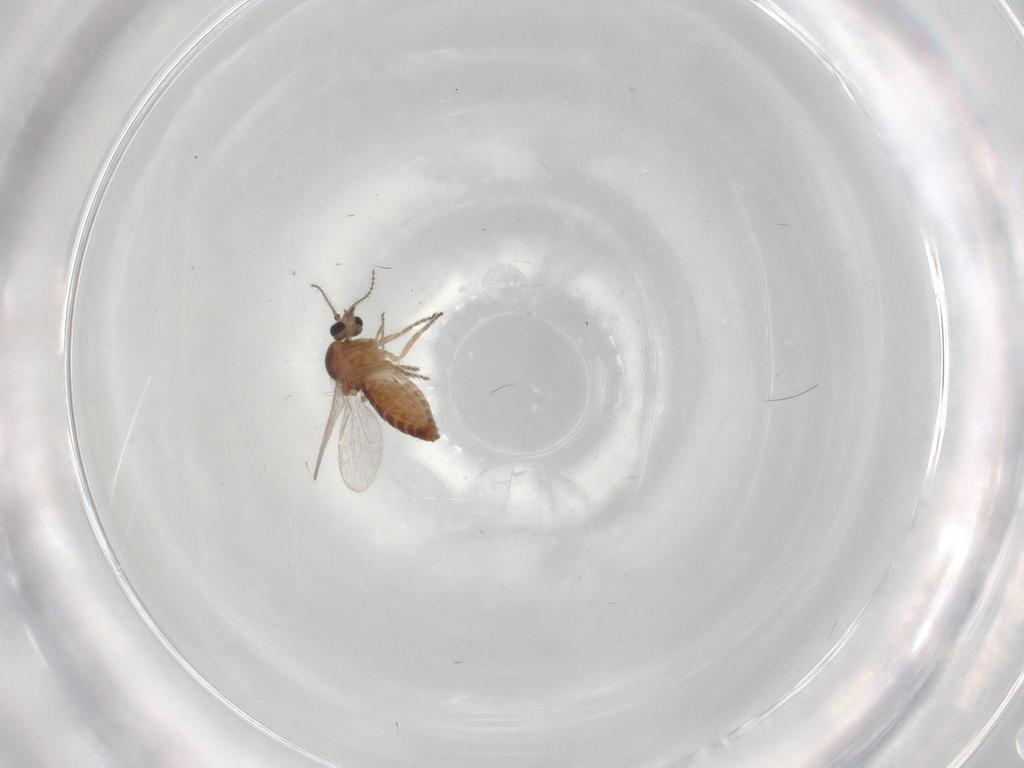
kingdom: Animalia
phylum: Arthropoda
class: Insecta
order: Diptera
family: Ceratopogonidae
